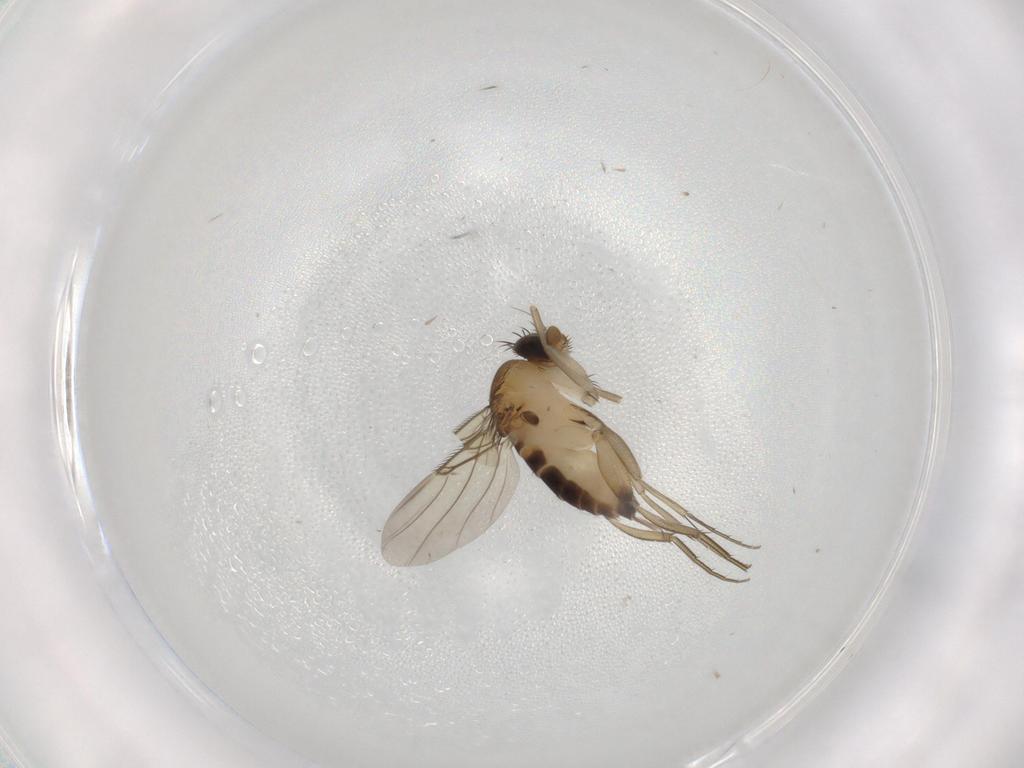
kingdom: Animalia
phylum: Arthropoda
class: Insecta
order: Diptera
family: Phoridae
